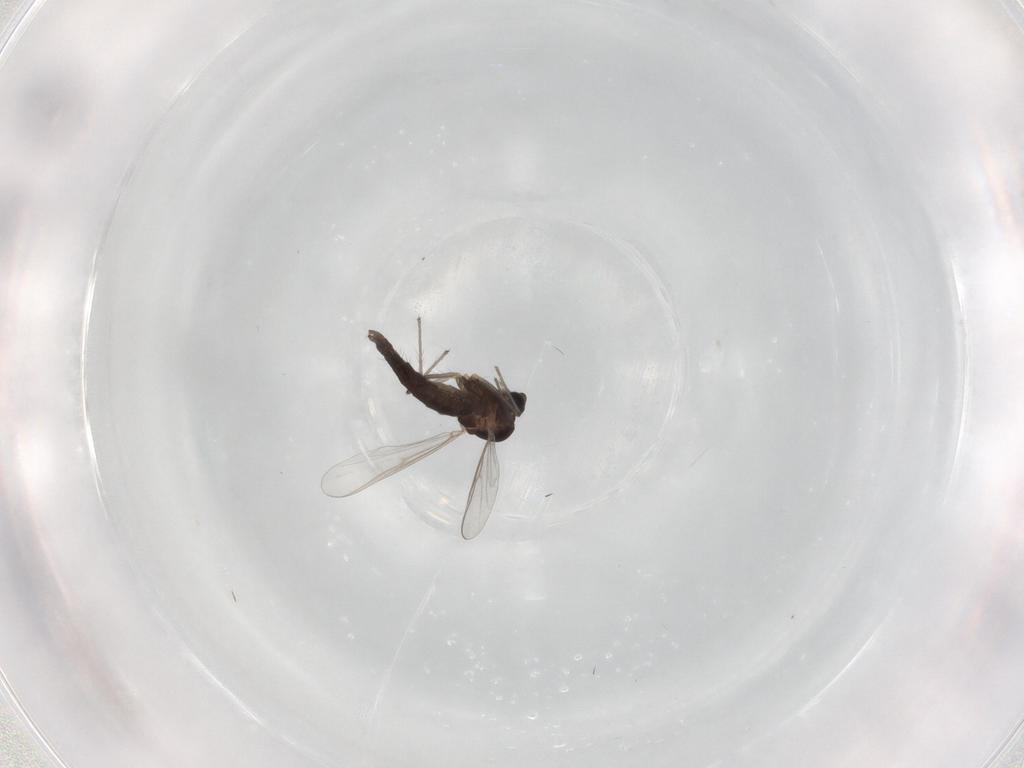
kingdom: Animalia
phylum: Arthropoda
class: Insecta
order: Diptera
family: Chironomidae
